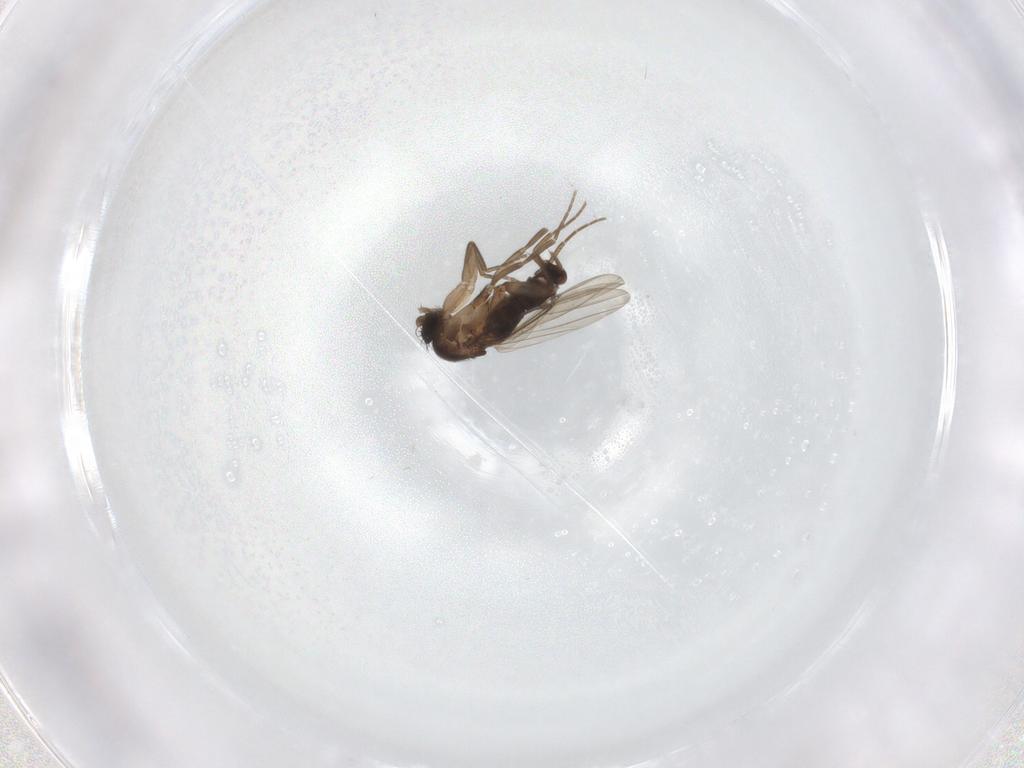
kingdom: Animalia
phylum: Arthropoda
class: Insecta
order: Diptera
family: Phoridae
